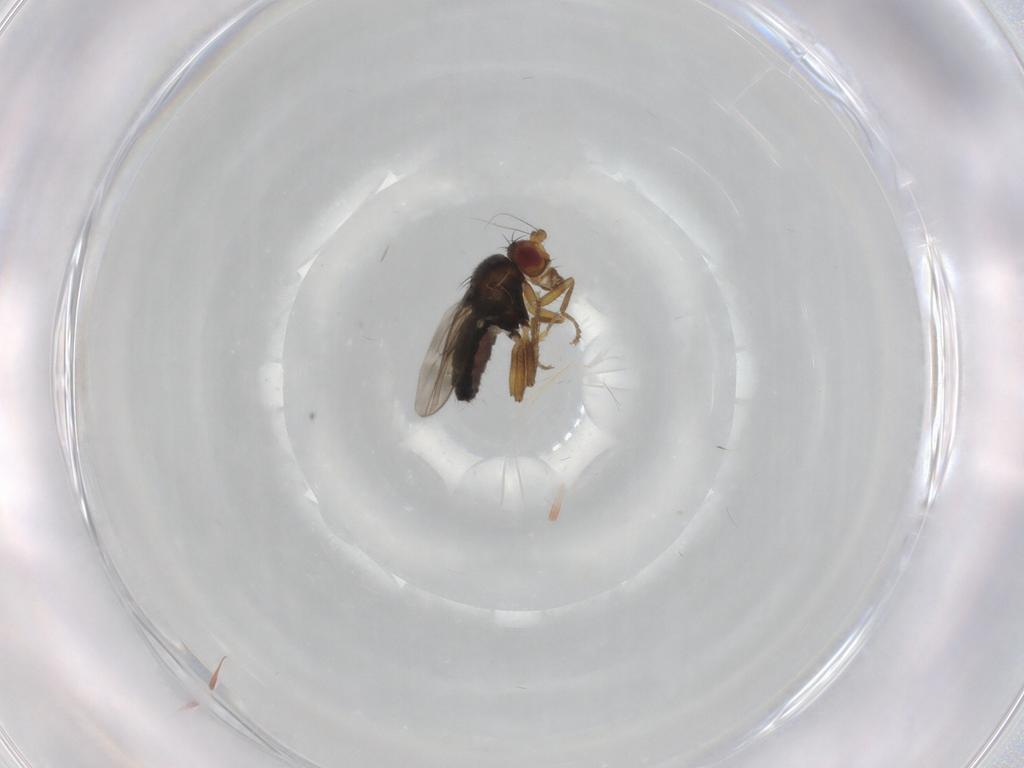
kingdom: Animalia
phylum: Arthropoda
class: Insecta
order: Diptera
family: Sphaeroceridae
